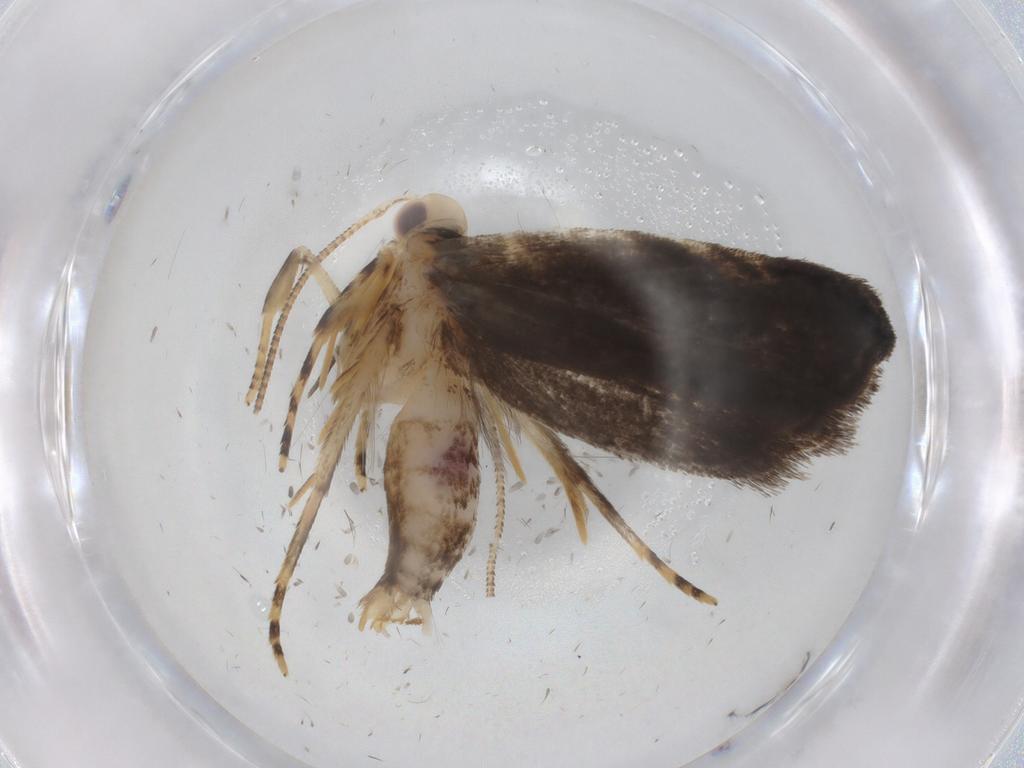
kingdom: Animalia
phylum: Arthropoda
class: Insecta
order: Lepidoptera
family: Gelechiidae
